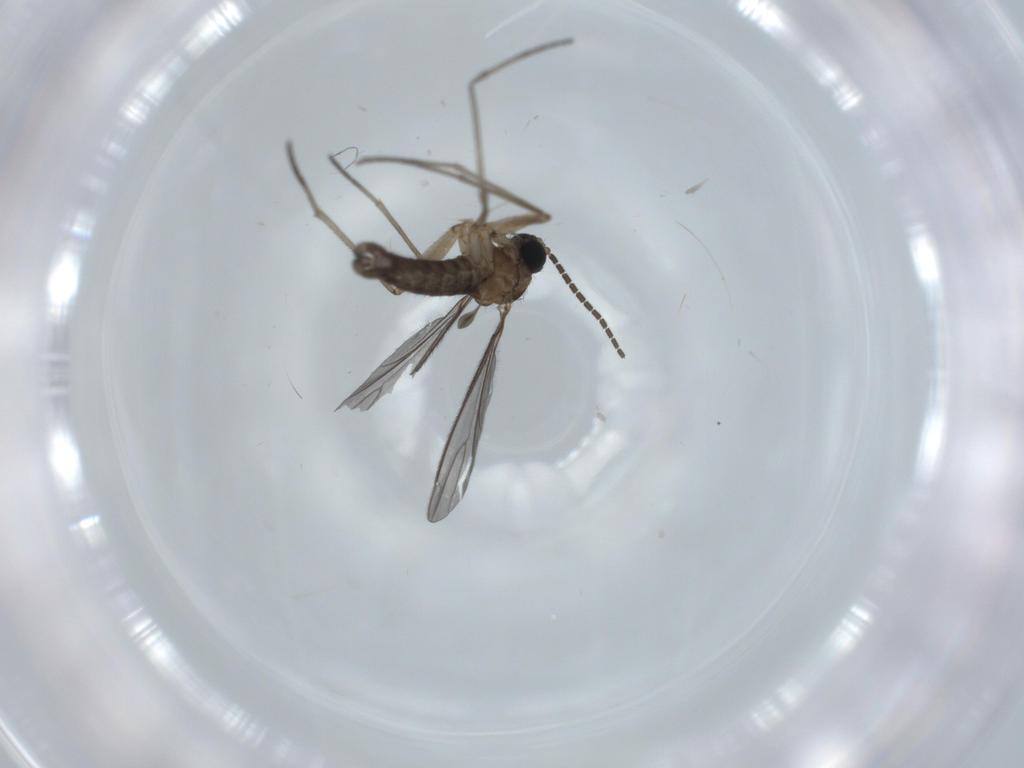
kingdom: Animalia
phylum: Arthropoda
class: Insecta
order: Diptera
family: Sciaridae
